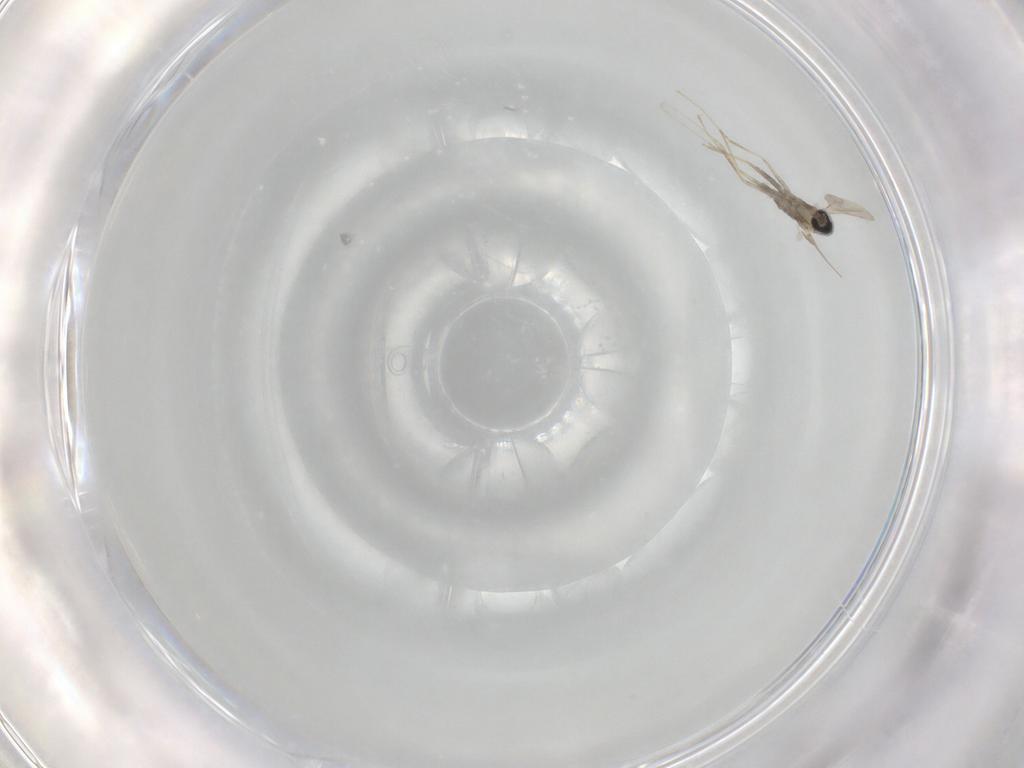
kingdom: Animalia
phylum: Arthropoda
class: Insecta
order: Diptera
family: Cecidomyiidae
